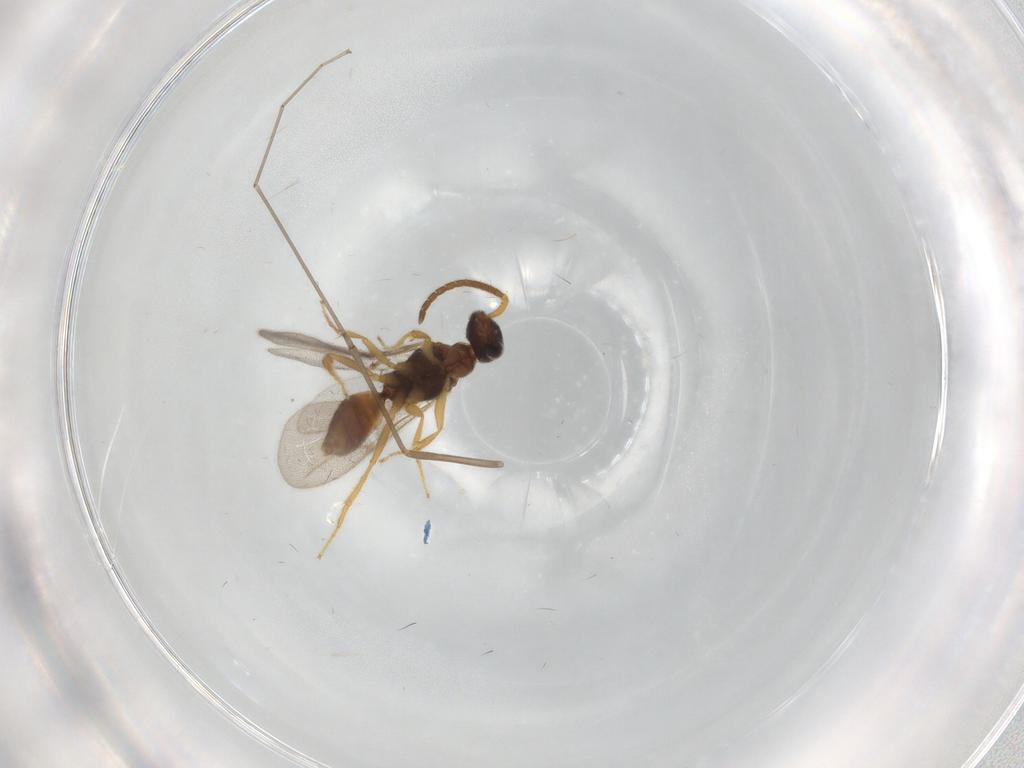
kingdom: Animalia
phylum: Arthropoda
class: Insecta
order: Hymenoptera
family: Bethylidae
